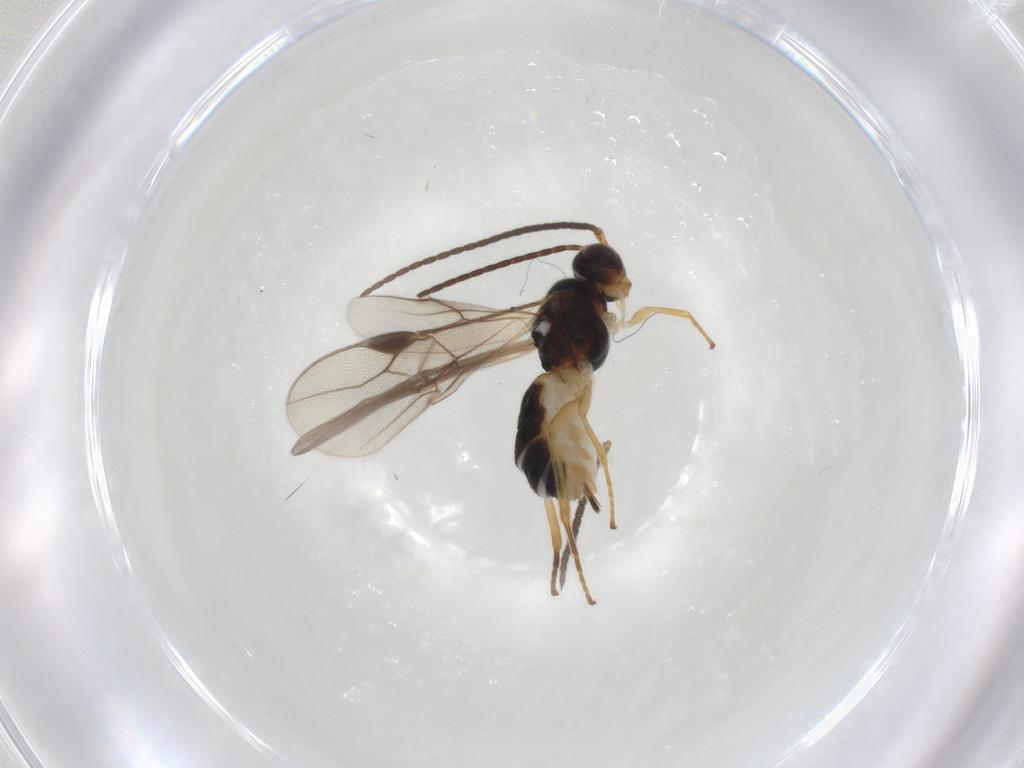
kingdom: Animalia
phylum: Arthropoda
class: Insecta
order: Hymenoptera
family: Braconidae
